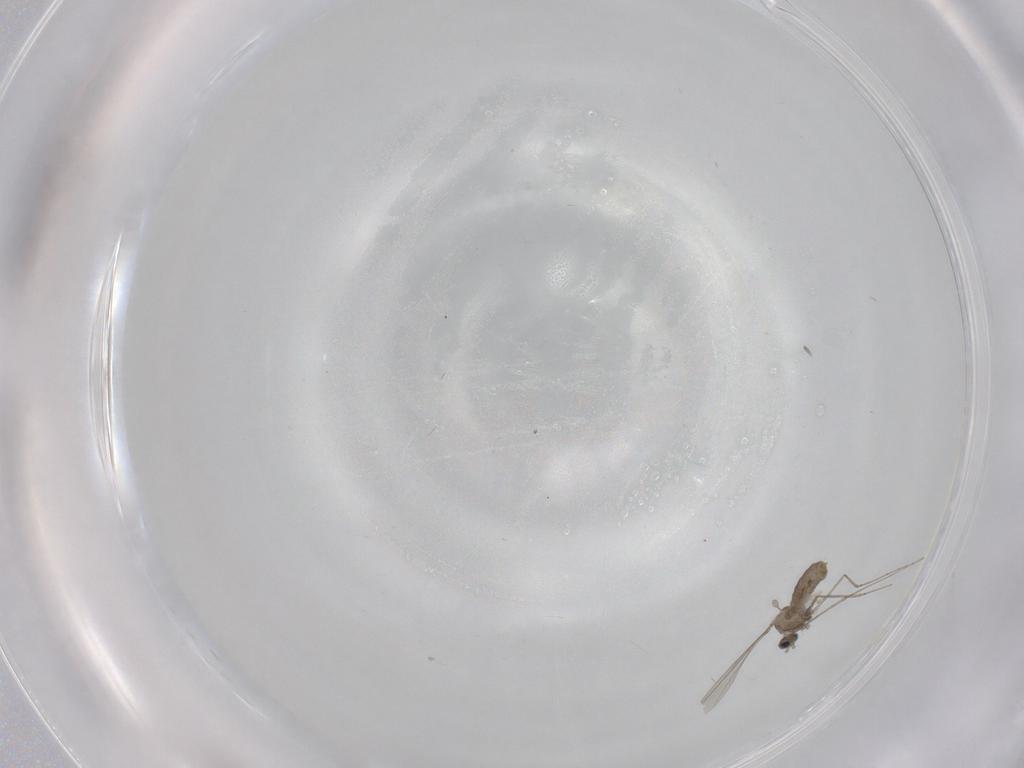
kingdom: Animalia
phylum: Arthropoda
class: Insecta
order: Diptera
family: Cecidomyiidae
